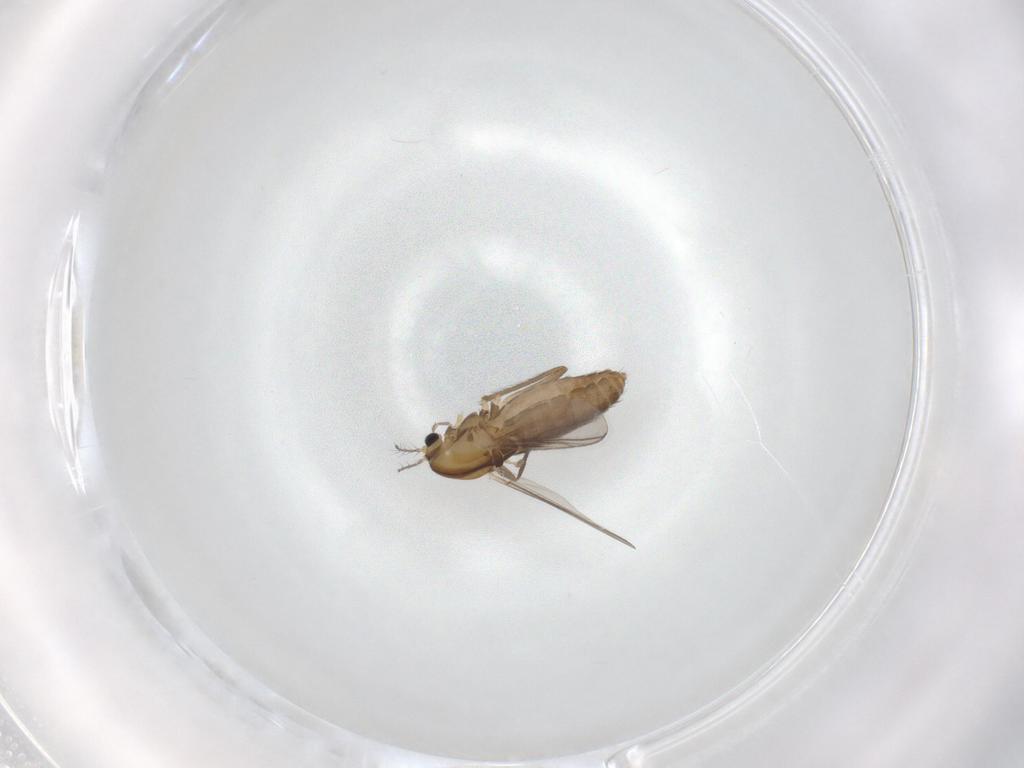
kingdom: Animalia
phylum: Arthropoda
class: Insecta
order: Diptera
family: Chironomidae
